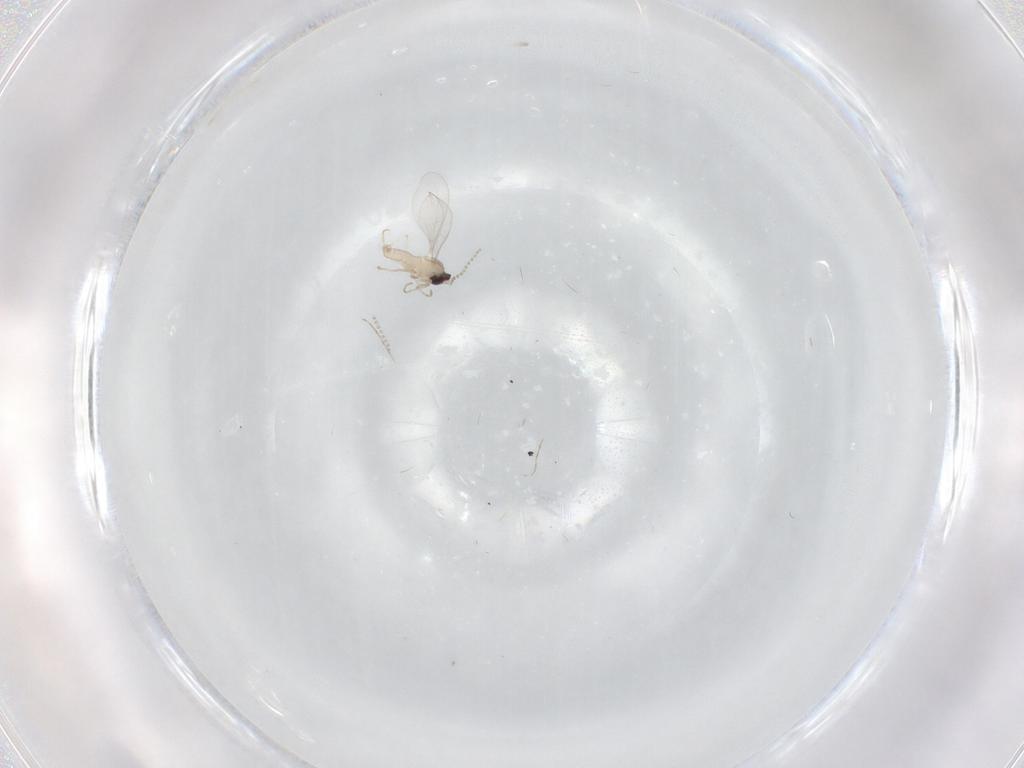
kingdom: Animalia
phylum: Arthropoda
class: Insecta
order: Diptera
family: Cecidomyiidae
